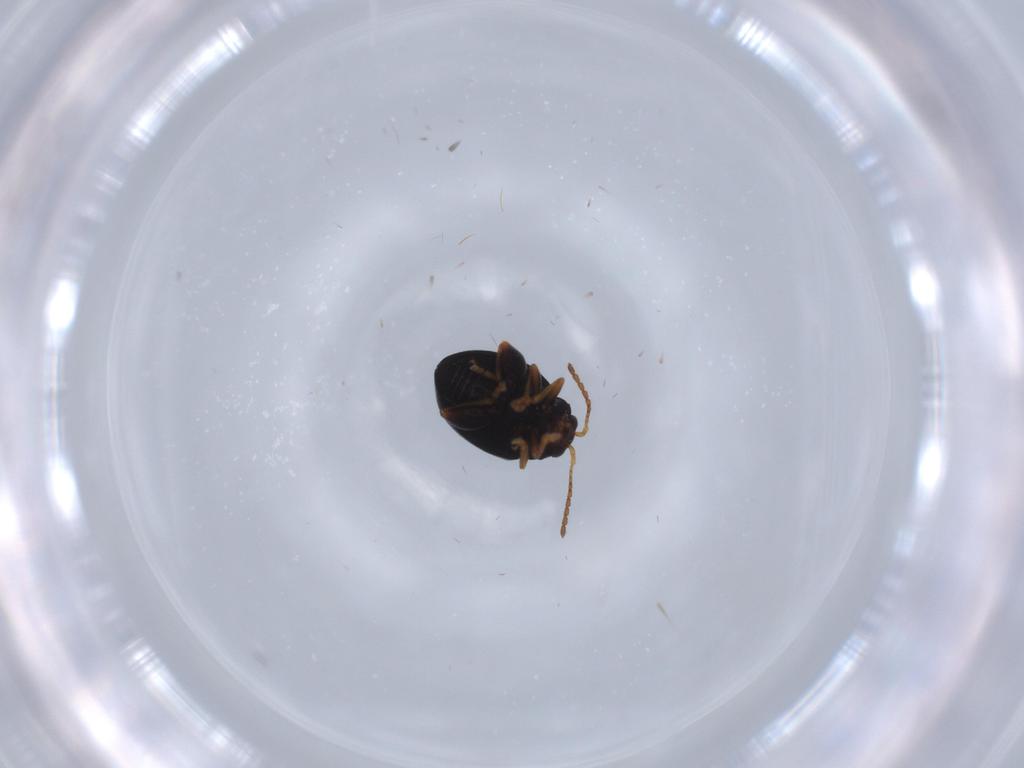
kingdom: Animalia
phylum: Arthropoda
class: Insecta
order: Coleoptera
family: Chrysomelidae
